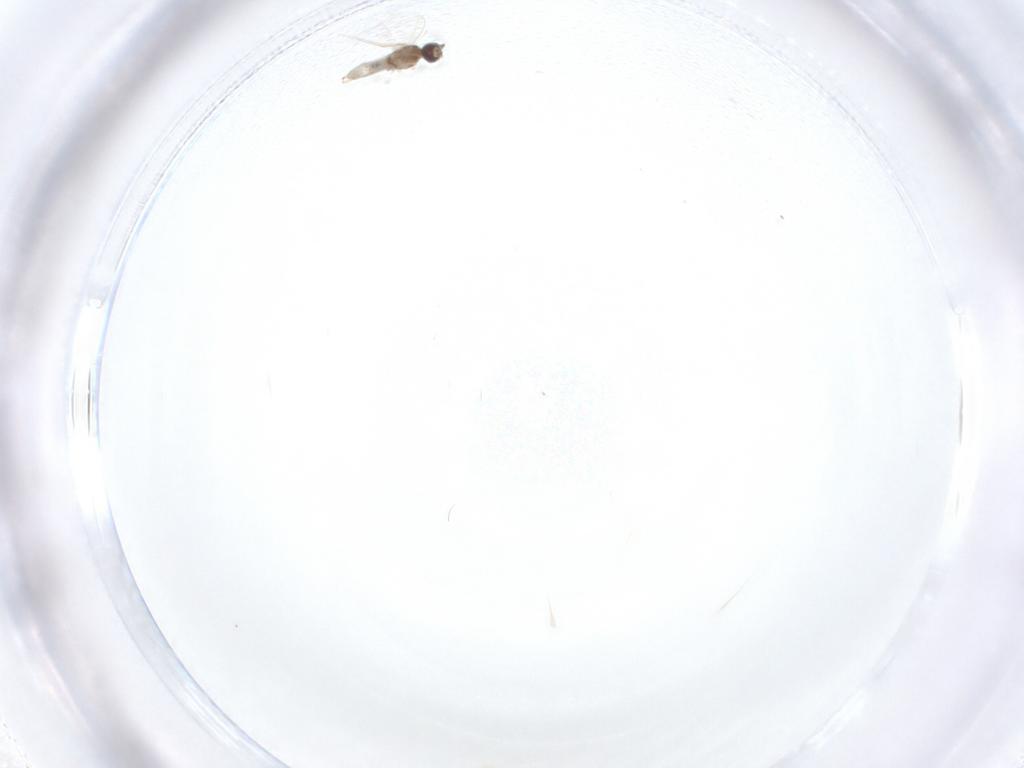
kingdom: Animalia
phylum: Arthropoda
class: Insecta
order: Diptera
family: Cecidomyiidae
